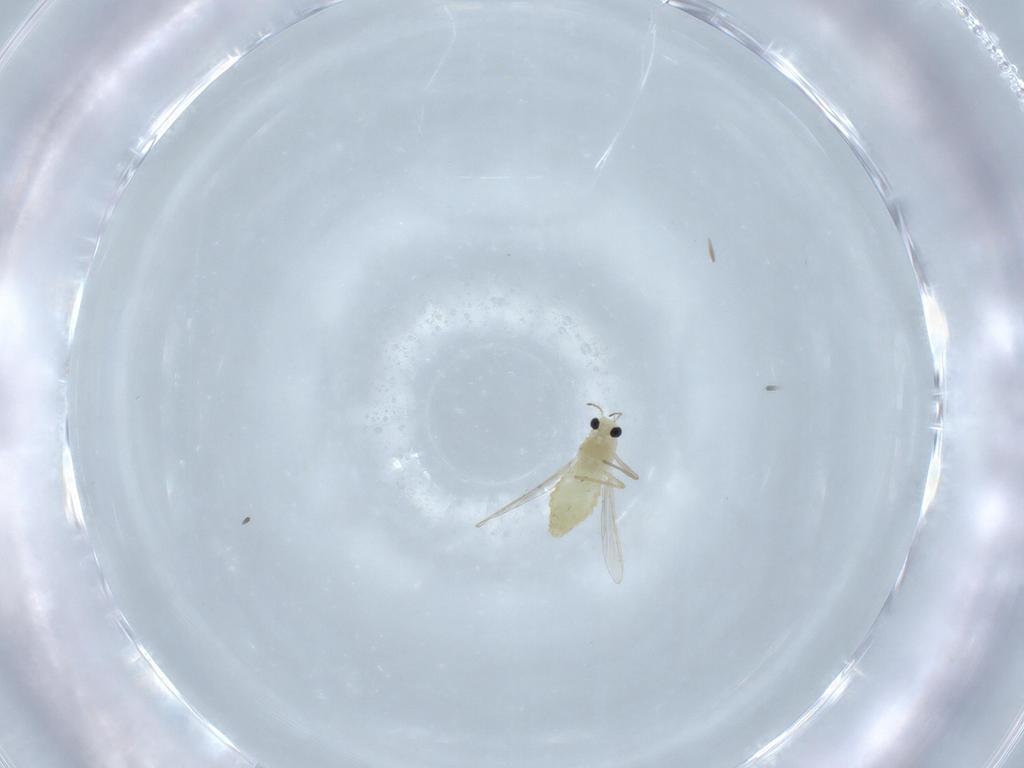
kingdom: Animalia
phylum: Arthropoda
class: Insecta
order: Diptera
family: Chironomidae
